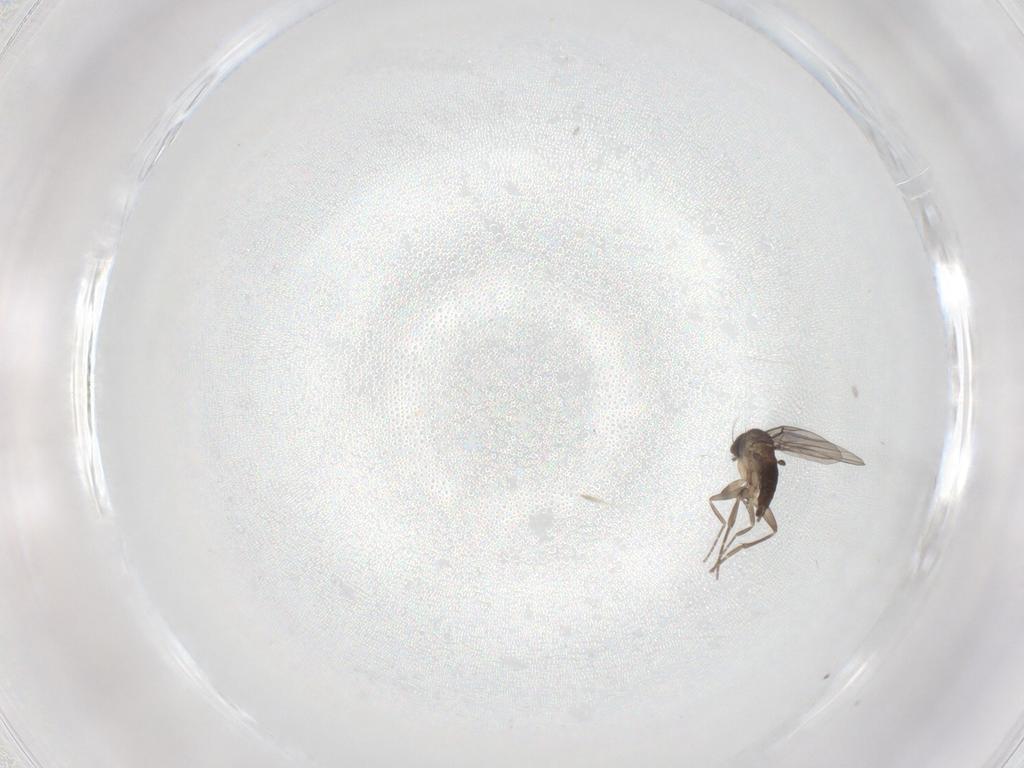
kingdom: Animalia
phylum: Arthropoda
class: Insecta
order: Diptera
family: Phoridae
